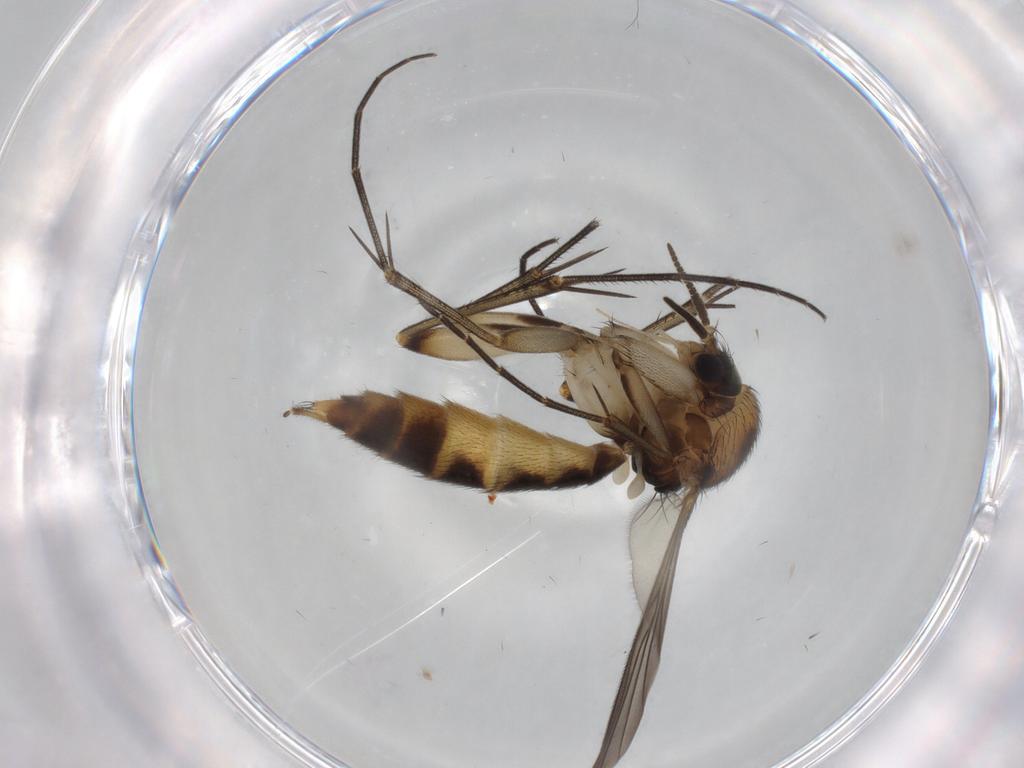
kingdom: Animalia
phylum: Arthropoda
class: Insecta
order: Diptera
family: Mycetophilidae
